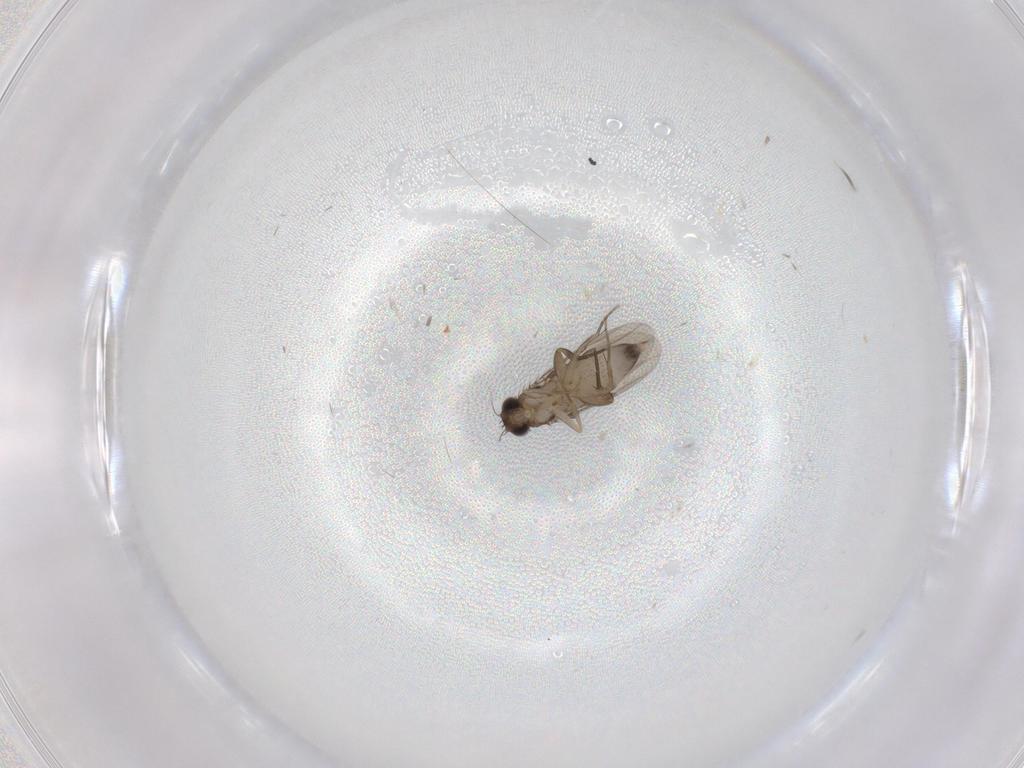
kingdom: Animalia
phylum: Arthropoda
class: Insecta
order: Diptera
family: Phoridae
